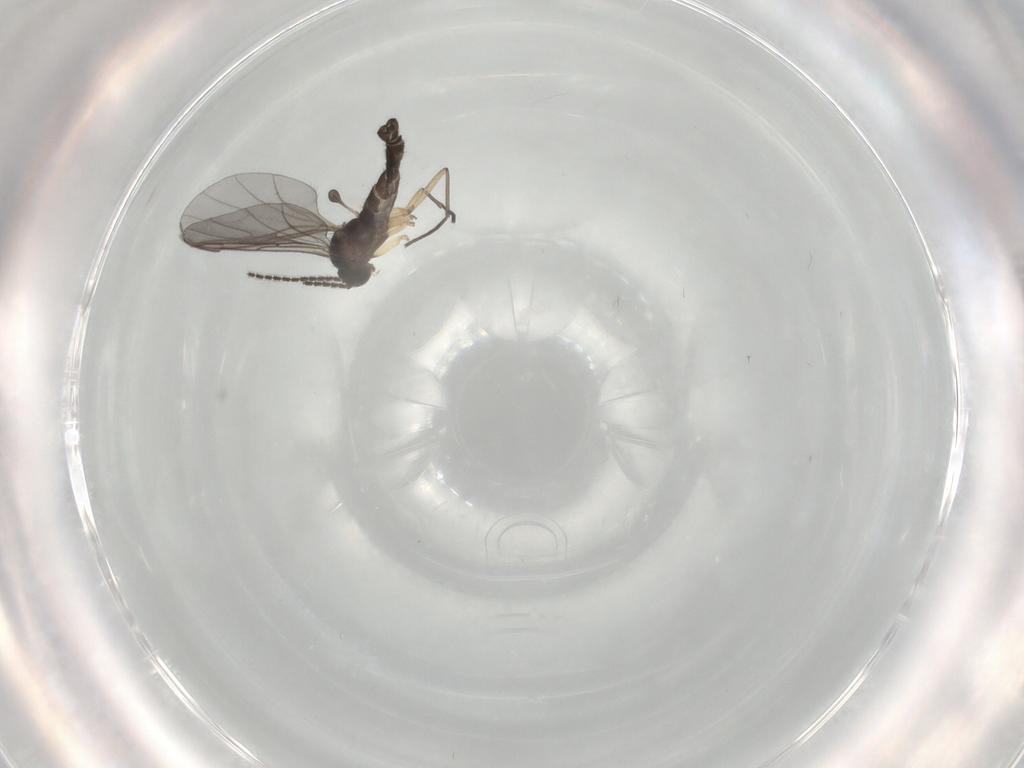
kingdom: Animalia
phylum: Arthropoda
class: Insecta
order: Diptera
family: Sciaridae
